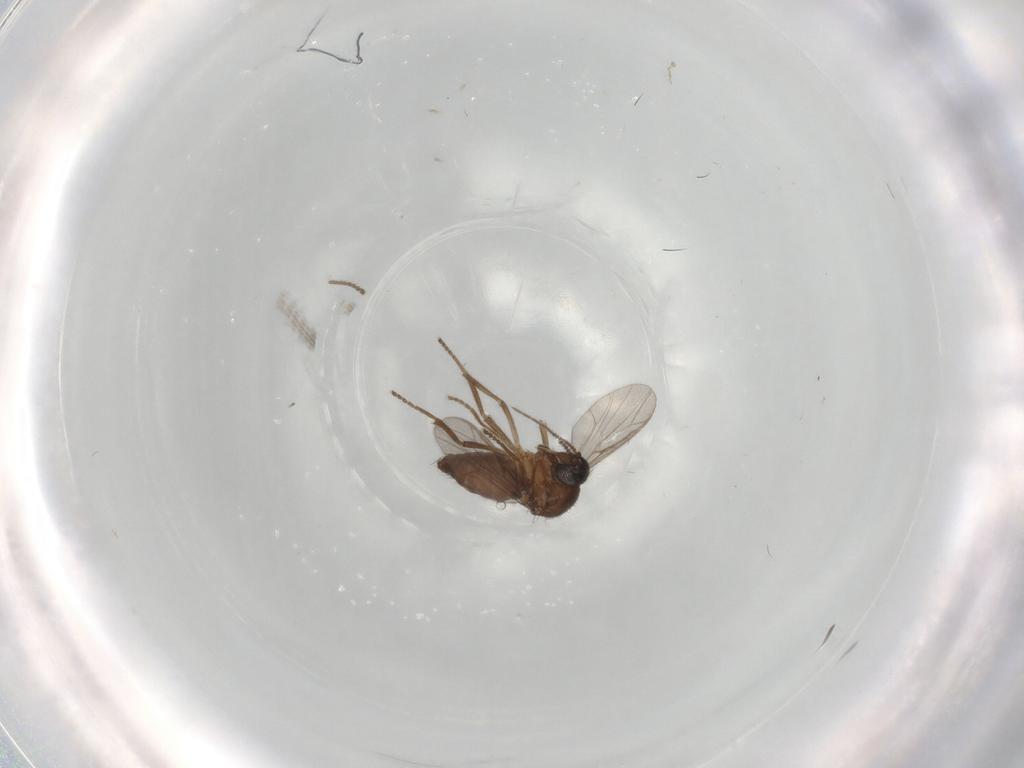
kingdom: Animalia
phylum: Arthropoda
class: Insecta
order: Diptera
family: Ceratopogonidae
